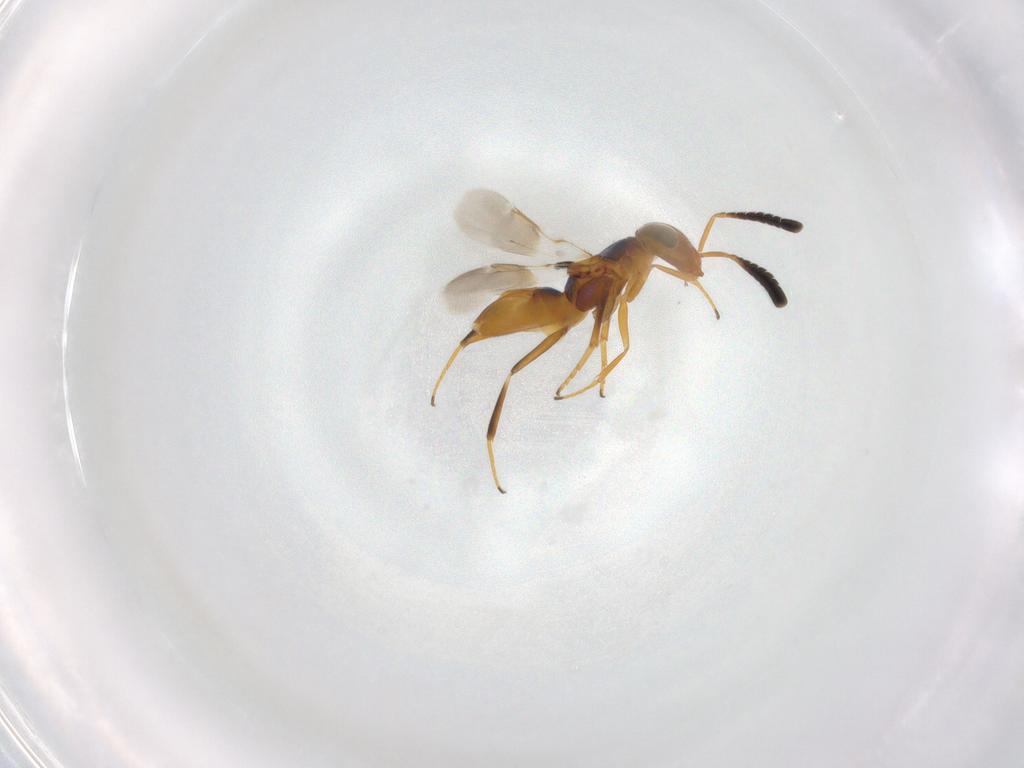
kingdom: Animalia
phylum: Arthropoda
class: Insecta
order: Hymenoptera
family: Encyrtidae
